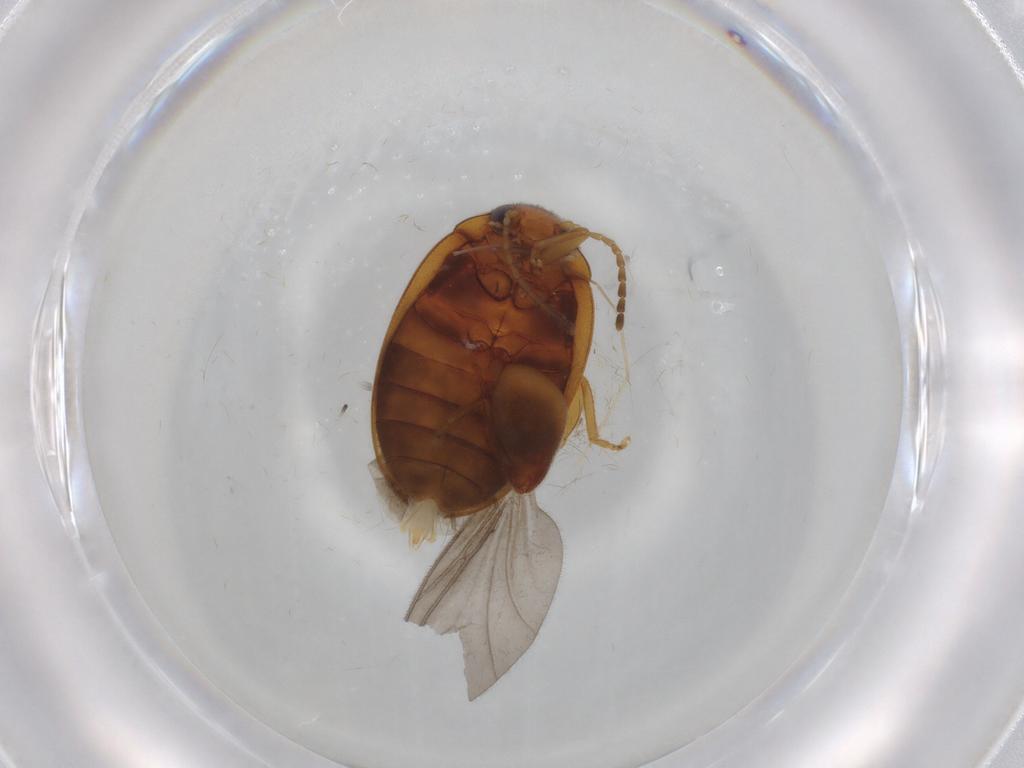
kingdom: Animalia
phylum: Arthropoda
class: Insecta
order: Coleoptera
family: Scirtidae
